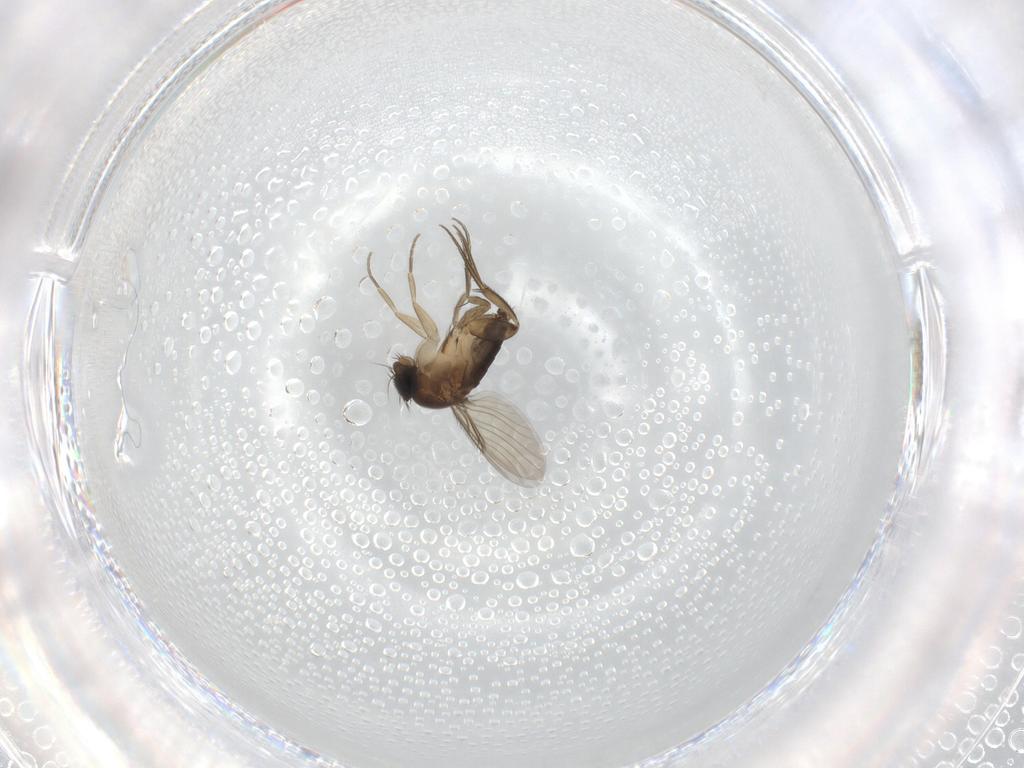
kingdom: Animalia
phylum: Arthropoda
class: Insecta
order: Diptera
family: Phoridae
